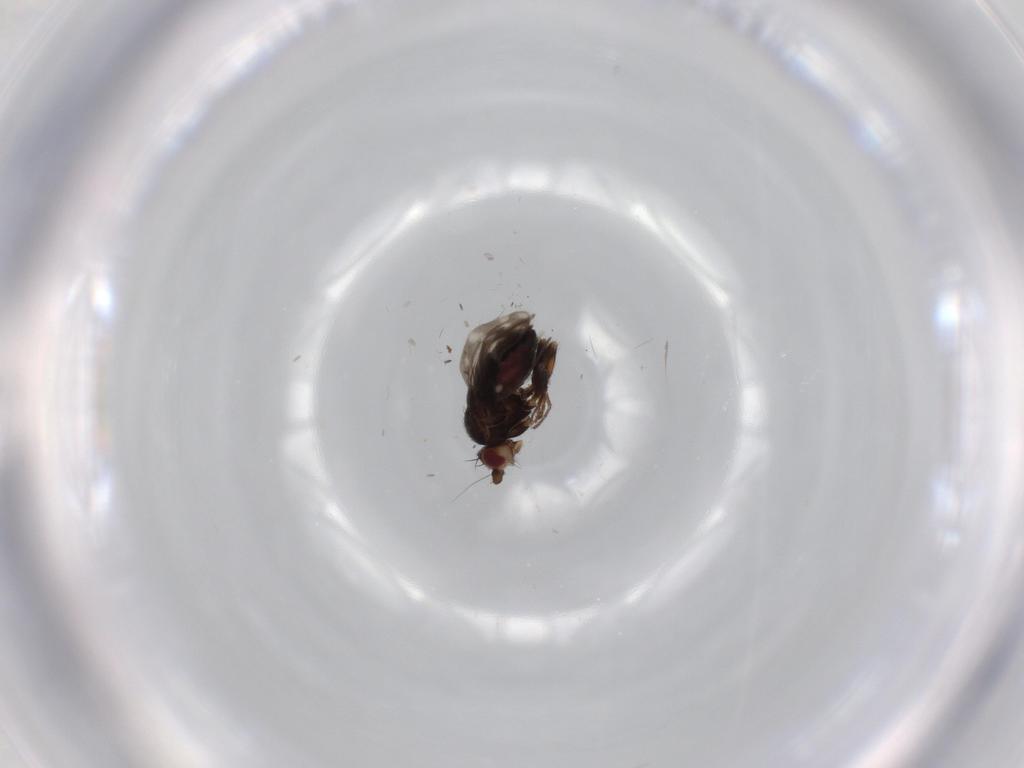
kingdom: Animalia
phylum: Arthropoda
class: Insecta
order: Diptera
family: Sphaeroceridae
